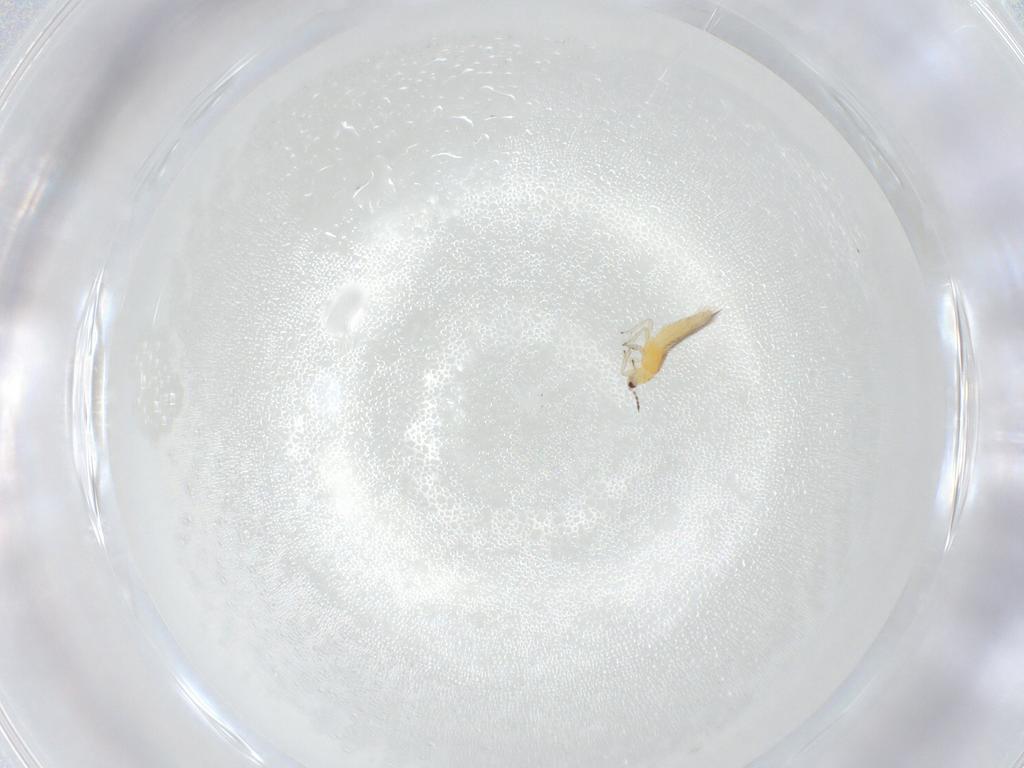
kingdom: Animalia
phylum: Arthropoda
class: Insecta
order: Thysanoptera
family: Thripidae
